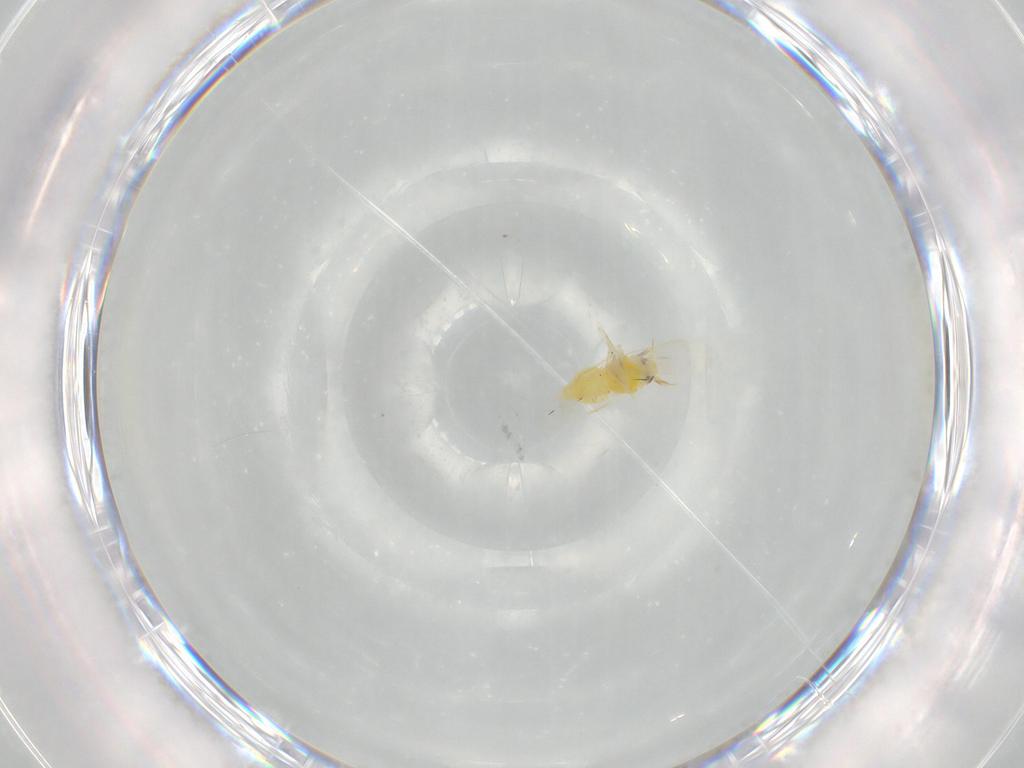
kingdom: Animalia
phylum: Arthropoda
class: Insecta
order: Hemiptera
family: Aleyrodidae
